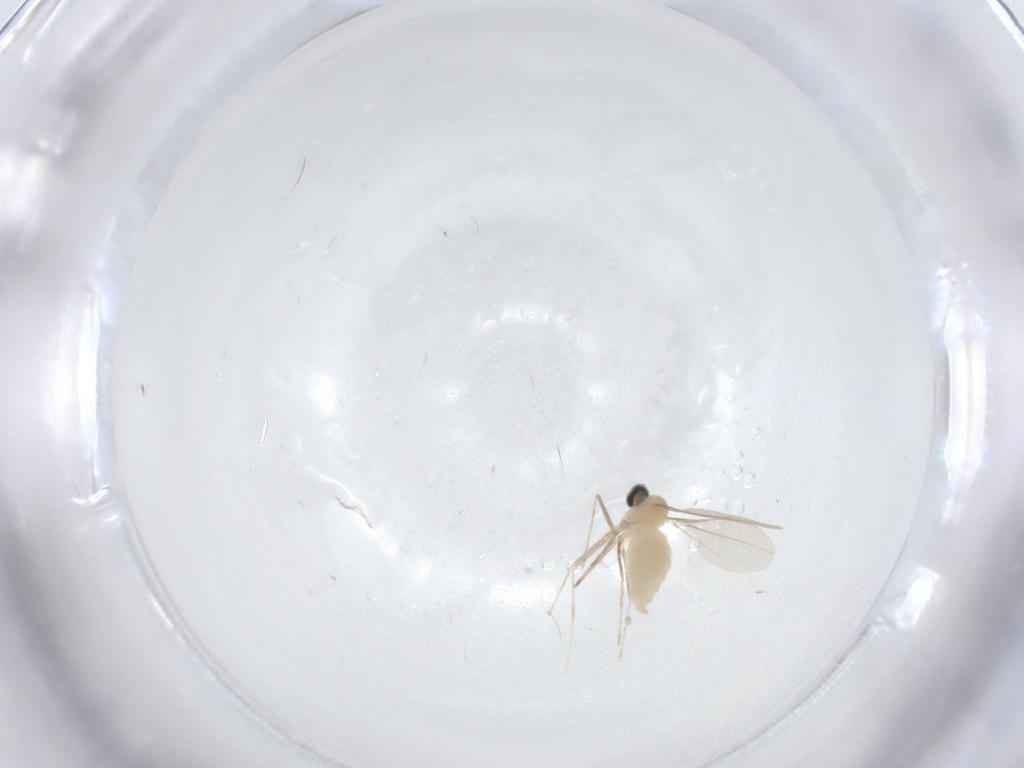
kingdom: Animalia
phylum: Arthropoda
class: Insecta
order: Diptera
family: Cecidomyiidae
